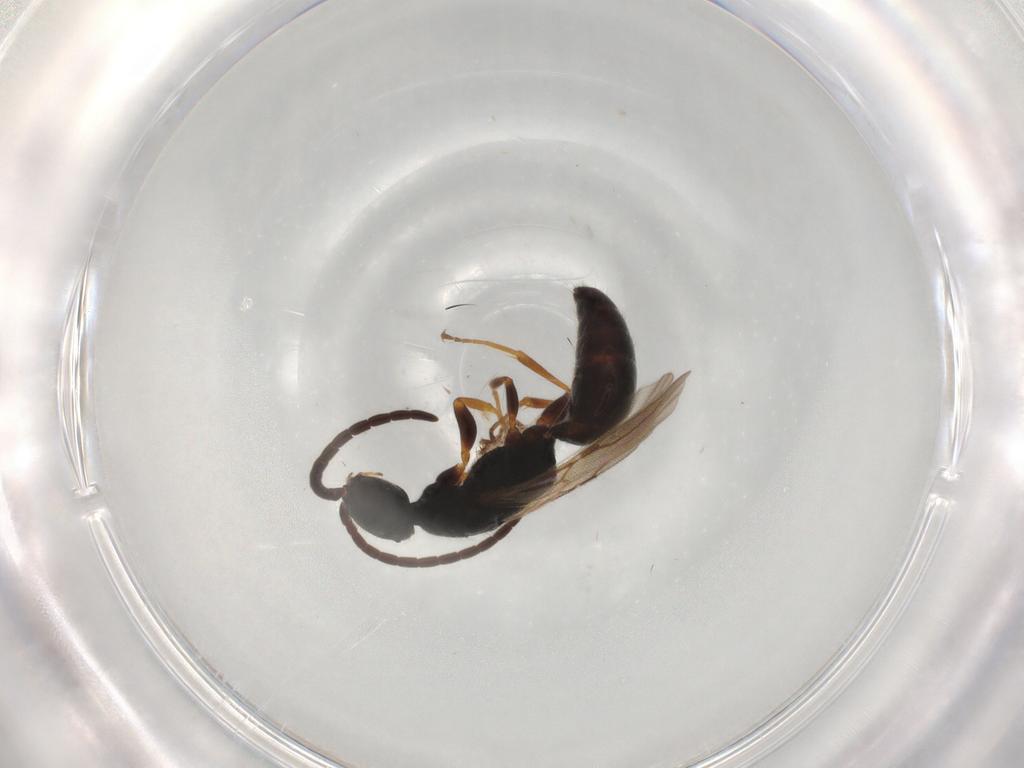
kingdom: Animalia
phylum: Arthropoda
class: Insecta
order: Hymenoptera
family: Bethylidae
